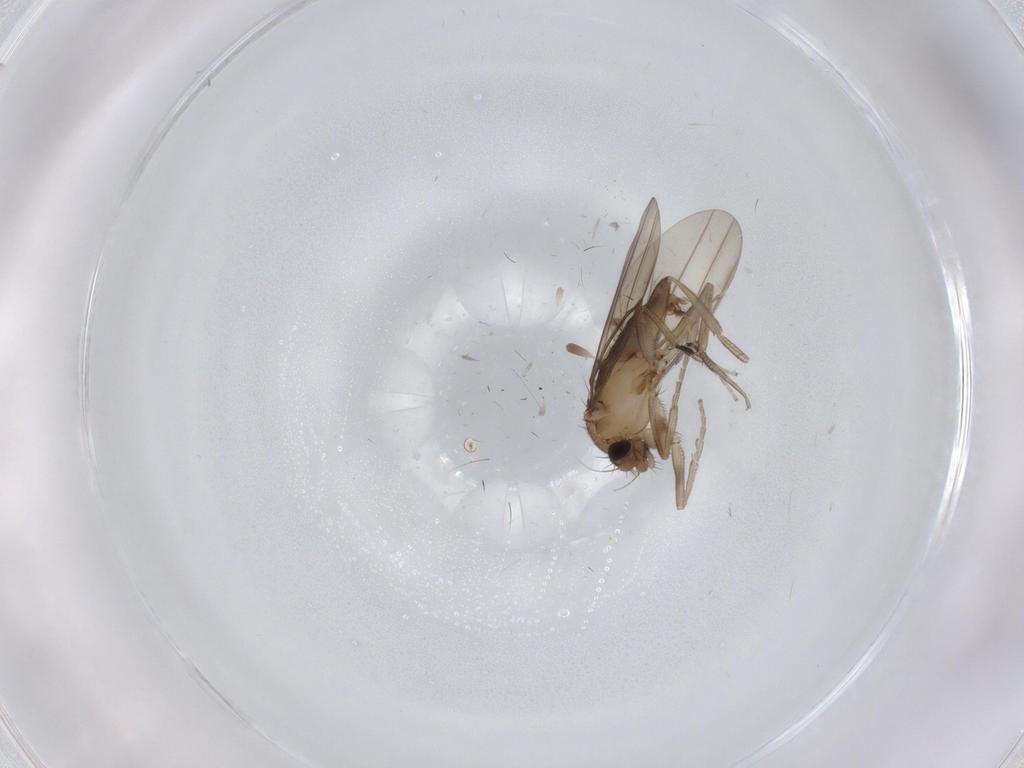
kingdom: Animalia
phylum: Arthropoda
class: Insecta
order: Diptera
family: Phoridae
